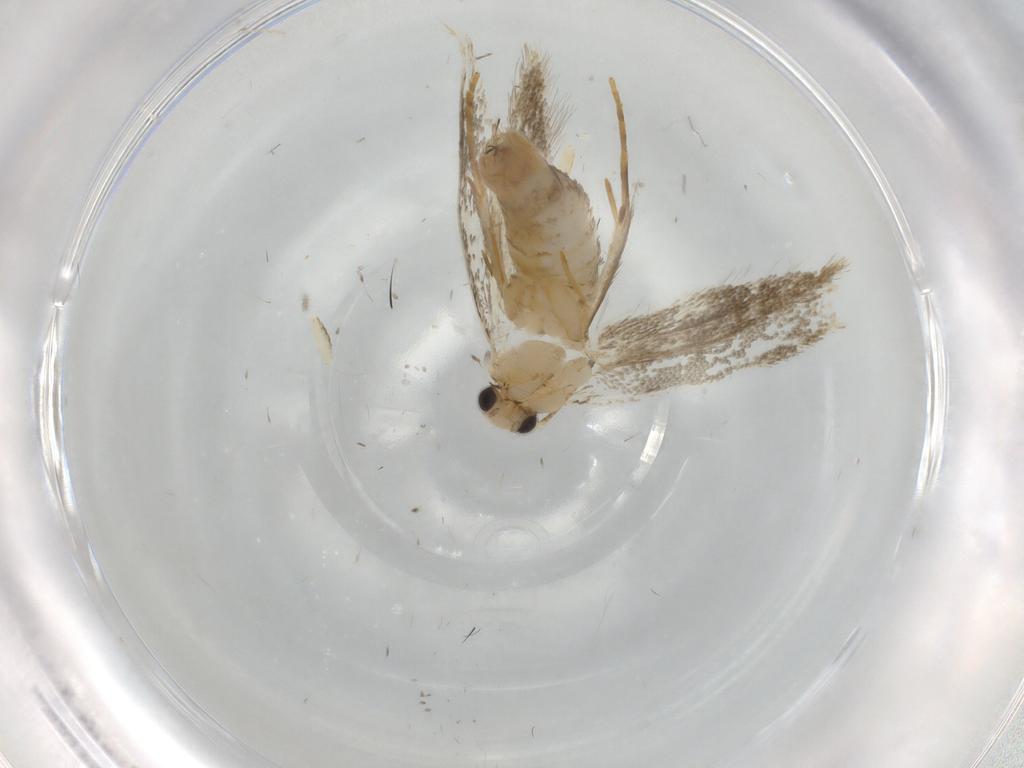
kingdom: Animalia
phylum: Arthropoda
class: Insecta
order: Lepidoptera
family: Tineidae
